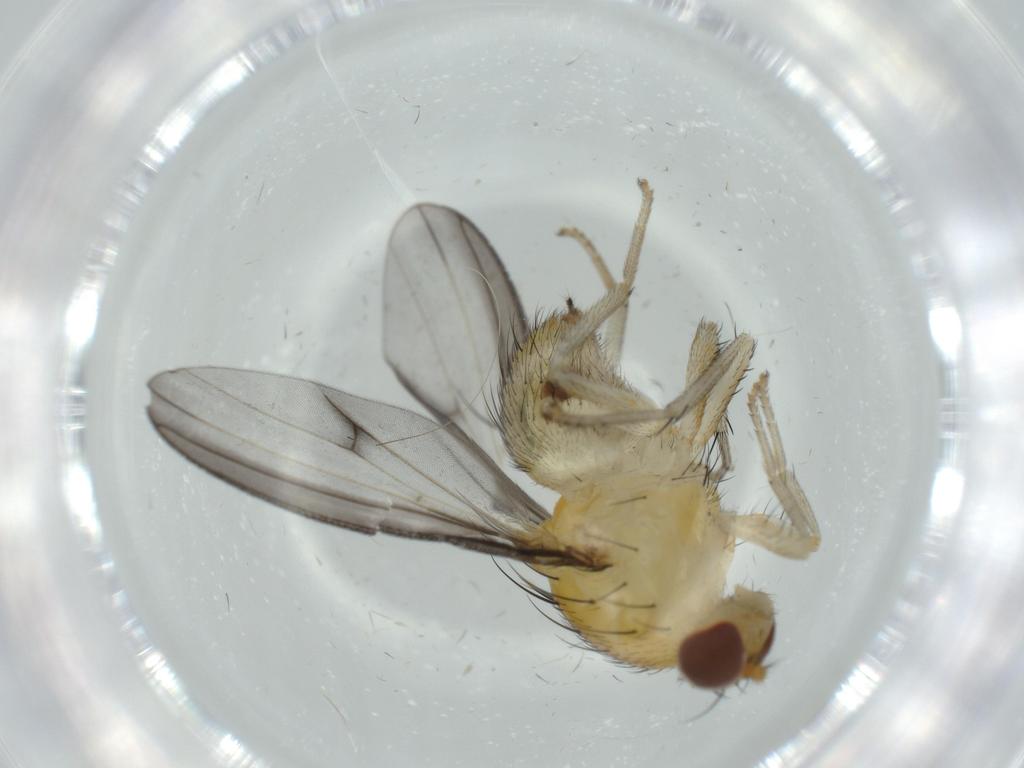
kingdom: Animalia
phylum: Arthropoda
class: Insecta
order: Diptera
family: Lauxaniidae
